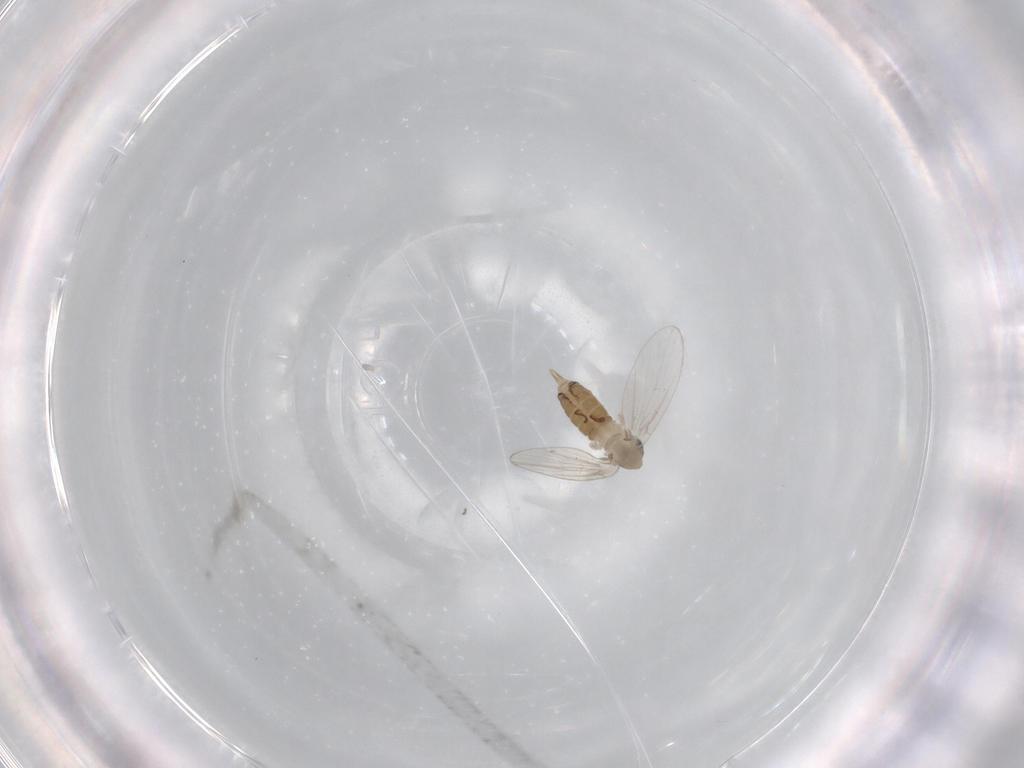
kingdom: Animalia
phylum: Arthropoda
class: Insecta
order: Diptera
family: Psychodidae
